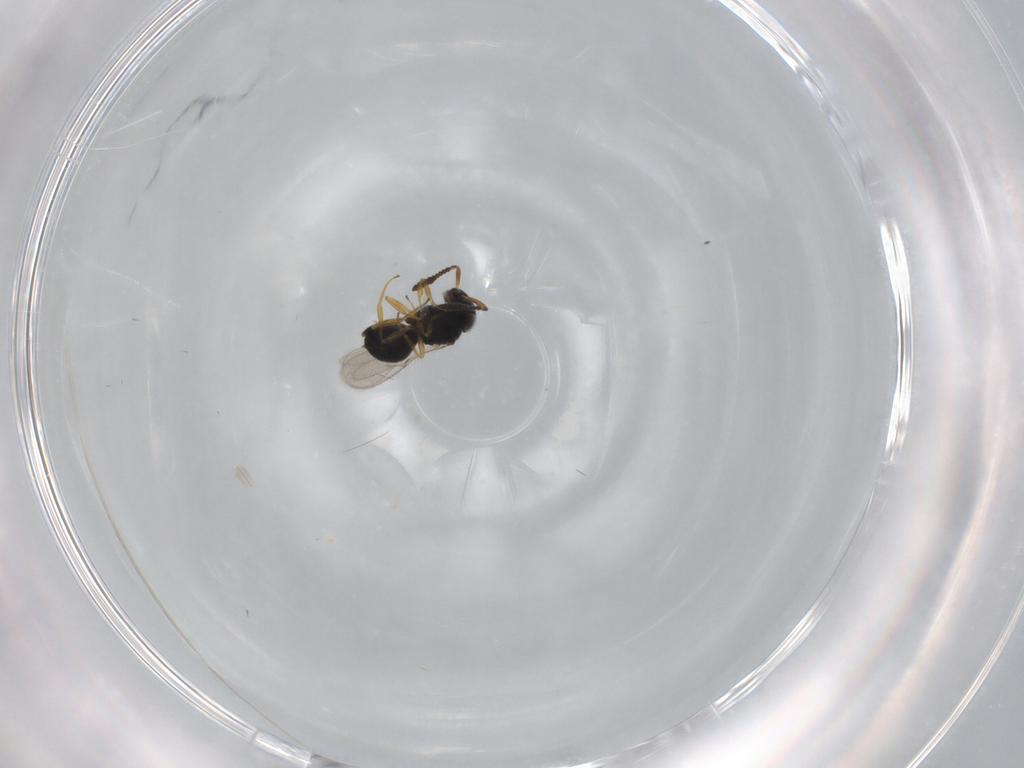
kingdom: Animalia
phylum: Arthropoda
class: Insecta
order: Hymenoptera
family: Scelionidae
